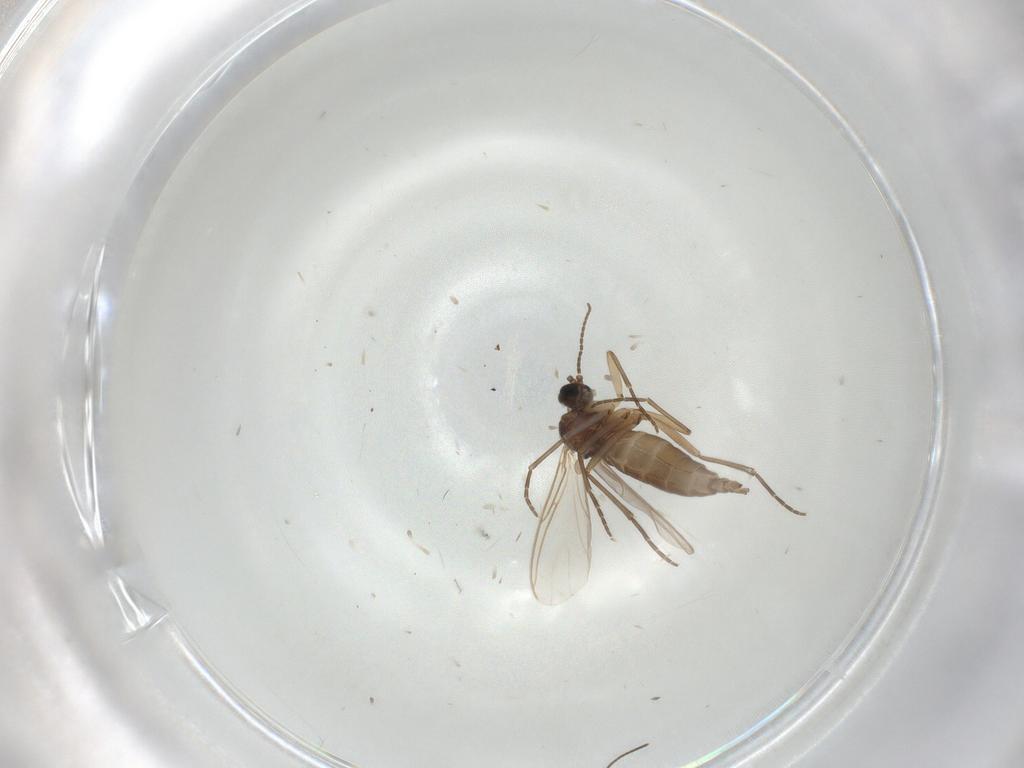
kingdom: Animalia
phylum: Arthropoda
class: Insecta
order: Diptera
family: Sciaridae
